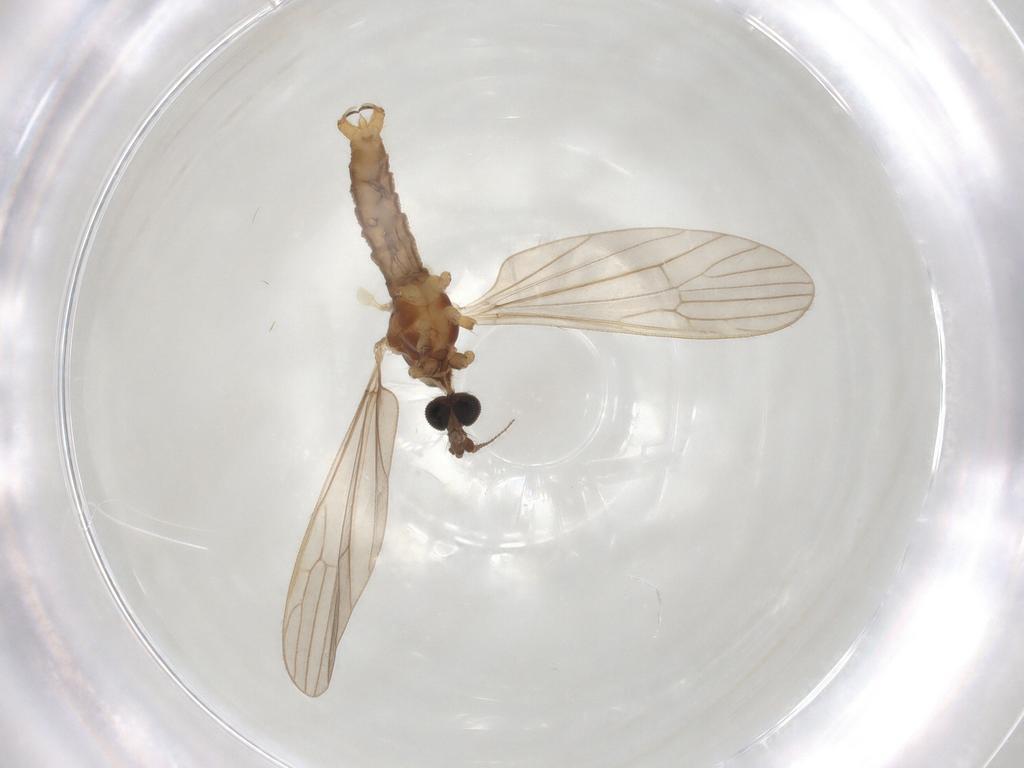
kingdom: Animalia
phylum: Arthropoda
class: Insecta
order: Diptera
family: Limoniidae
